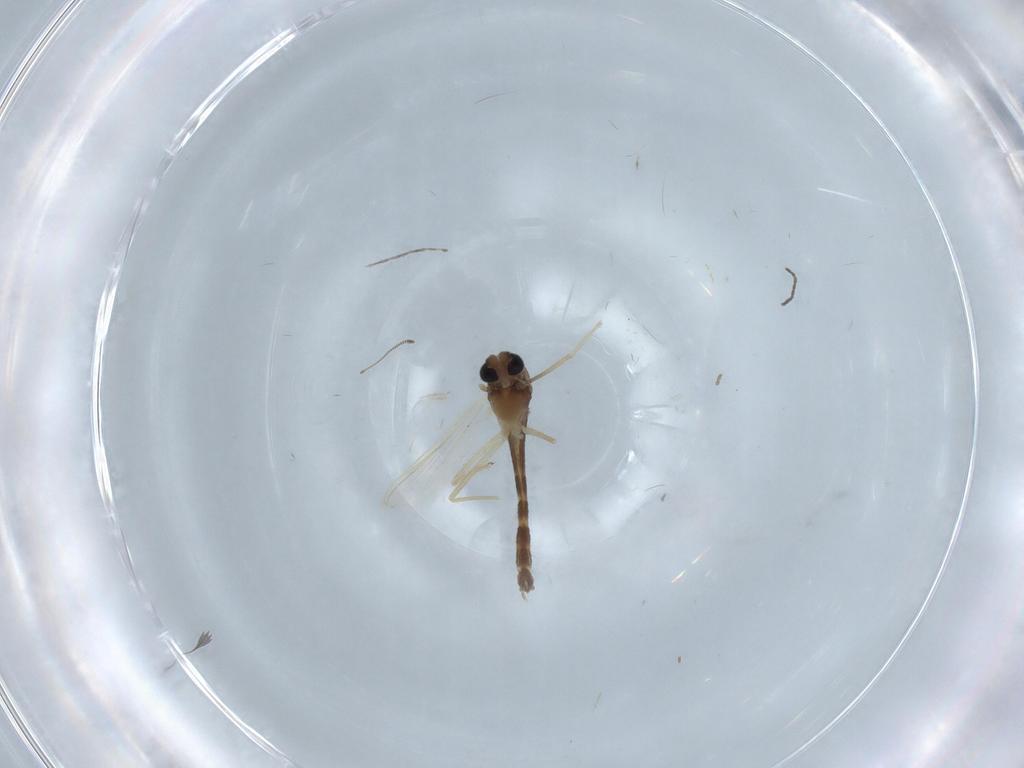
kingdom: Animalia
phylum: Arthropoda
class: Insecta
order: Diptera
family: Chironomidae
